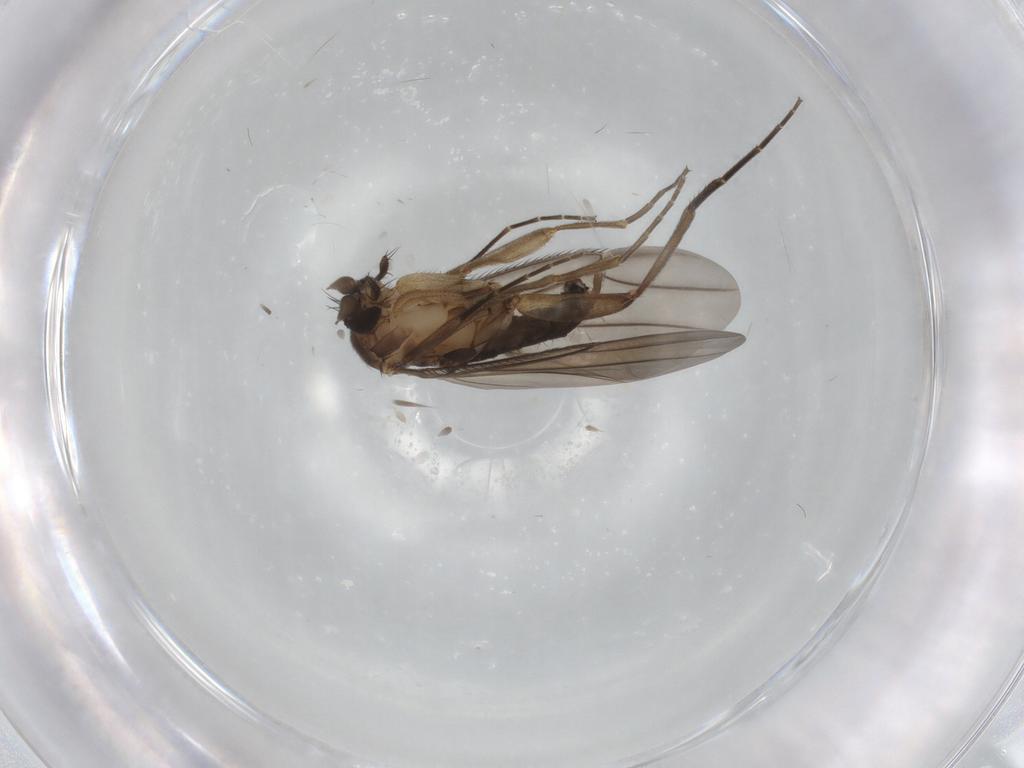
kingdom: Animalia
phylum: Arthropoda
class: Insecta
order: Diptera
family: Phoridae
